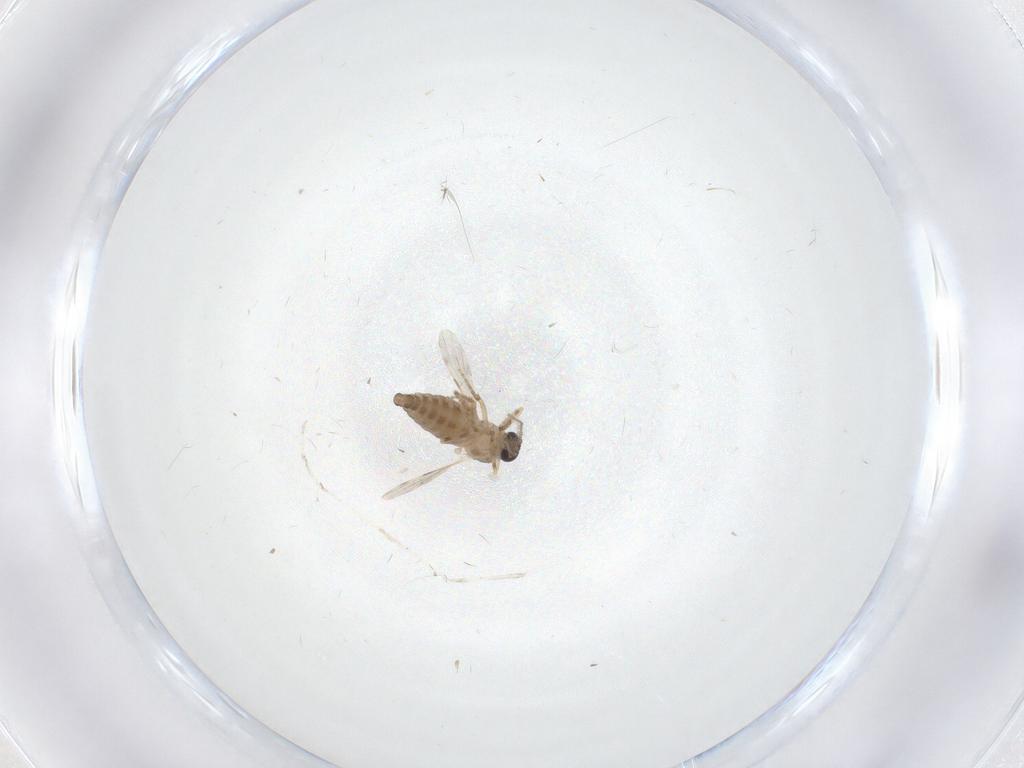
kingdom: Animalia
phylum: Arthropoda
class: Insecta
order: Diptera
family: Ceratopogonidae
